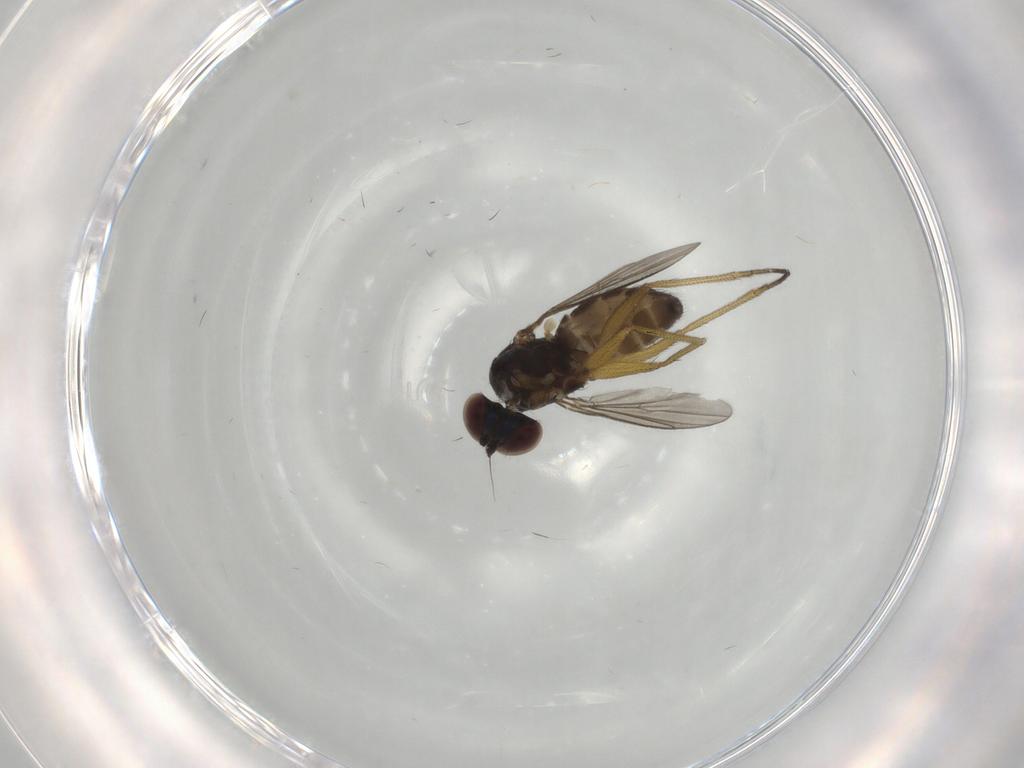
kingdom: Animalia
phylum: Arthropoda
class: Insecta
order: Diptera
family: Dolichopodidae
